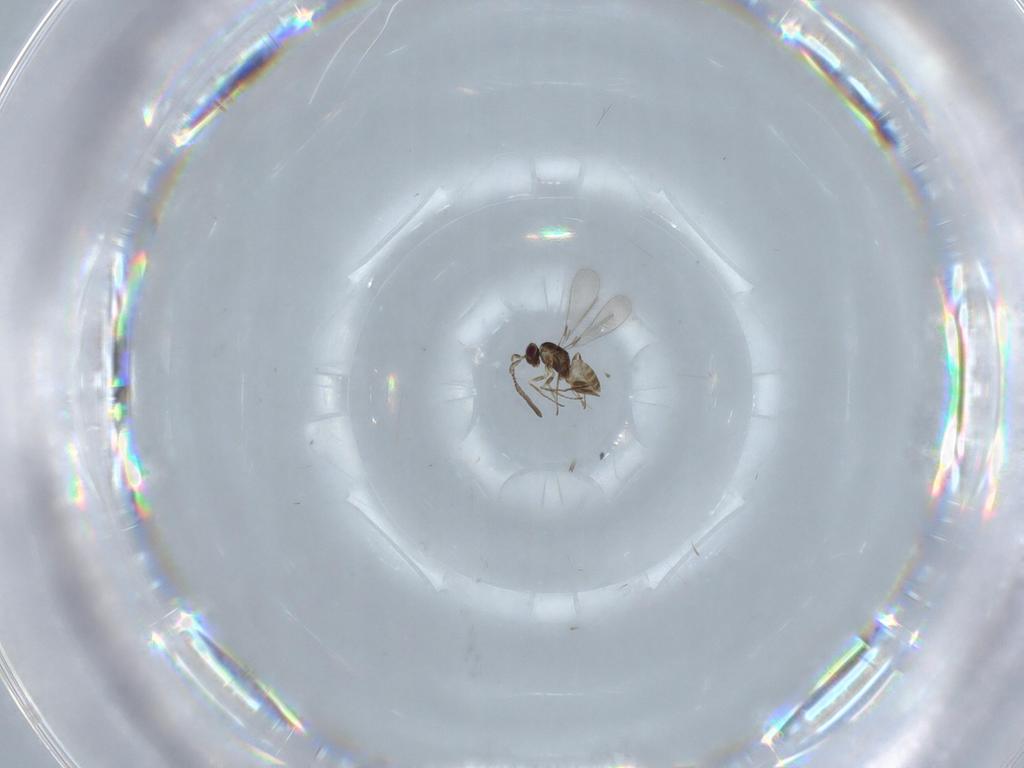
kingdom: Animalia
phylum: Arthropoda
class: Insecta
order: Hymenoptera
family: Mymaridae
